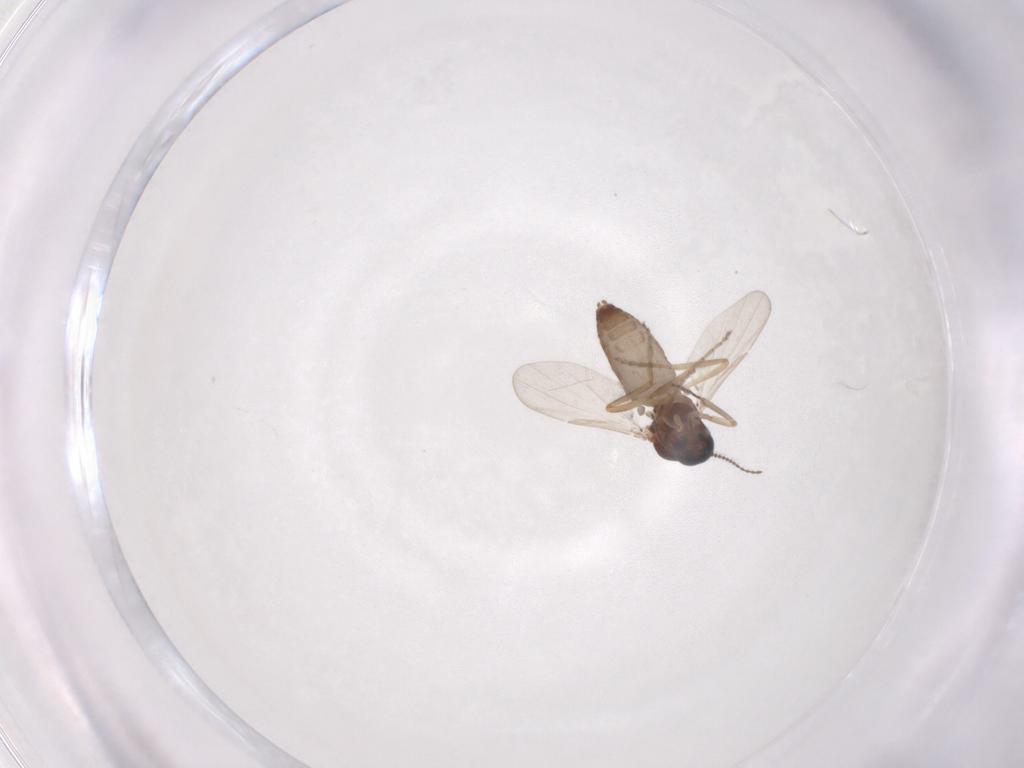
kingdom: Animalia
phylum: Arthropoda
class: Insecta
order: Diptera
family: Ceratopogonidae
